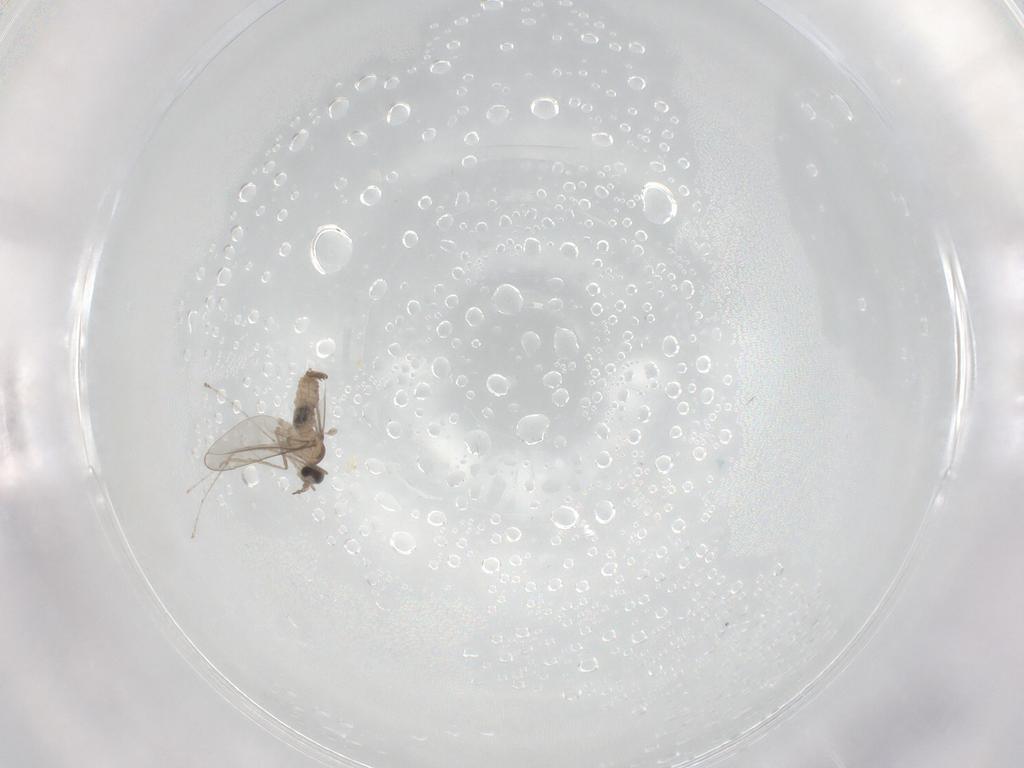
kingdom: Animalia
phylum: Arthropoda
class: Insecta
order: Diptera
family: Cecidomyiidae
